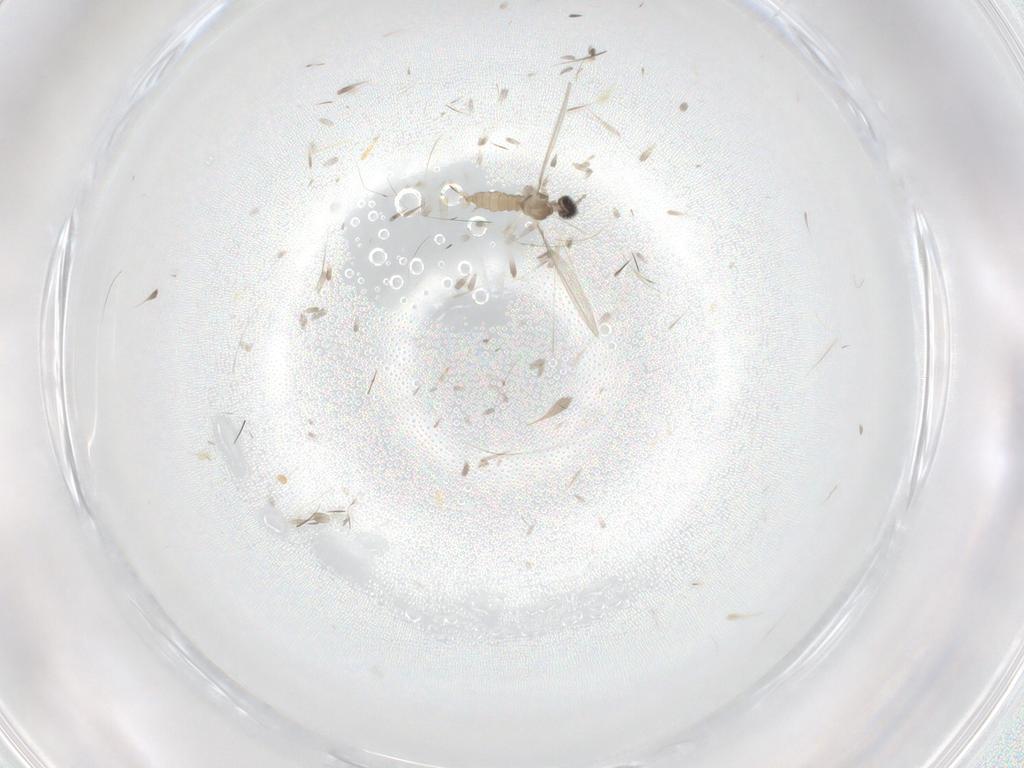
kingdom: Animalia
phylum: Arthropoda
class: Insecta
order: Diptera
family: Cecidomyiidae
